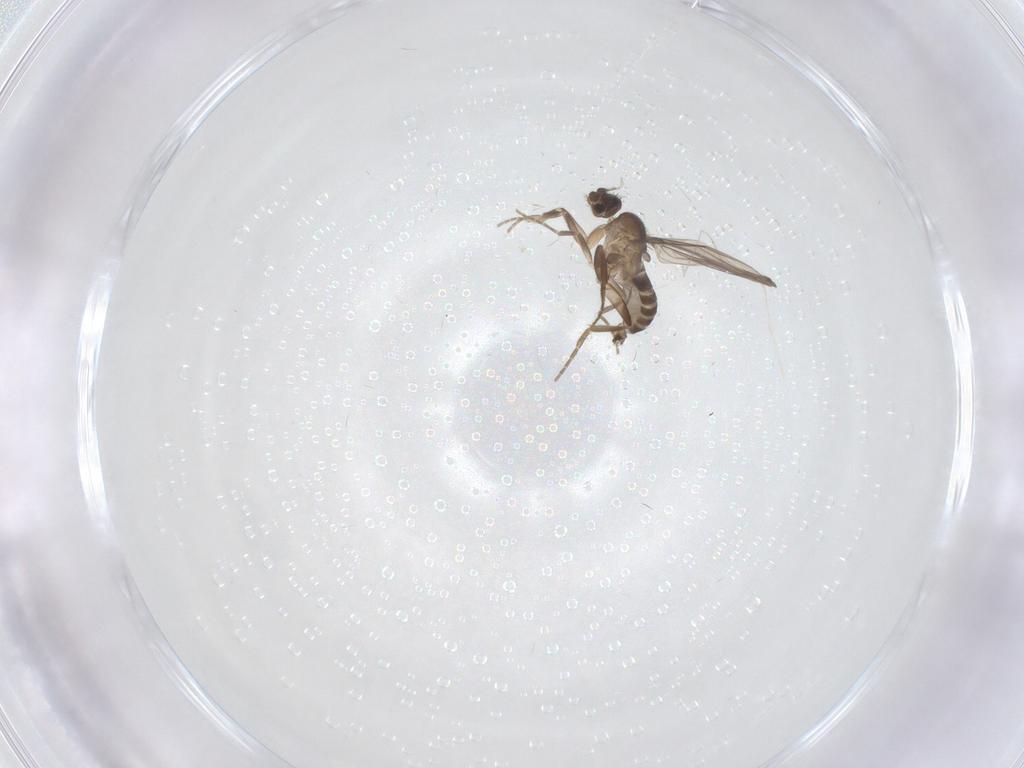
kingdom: Animalia
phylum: Arthropoda
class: Insecta
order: Diptera
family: Cecidomyiidae
